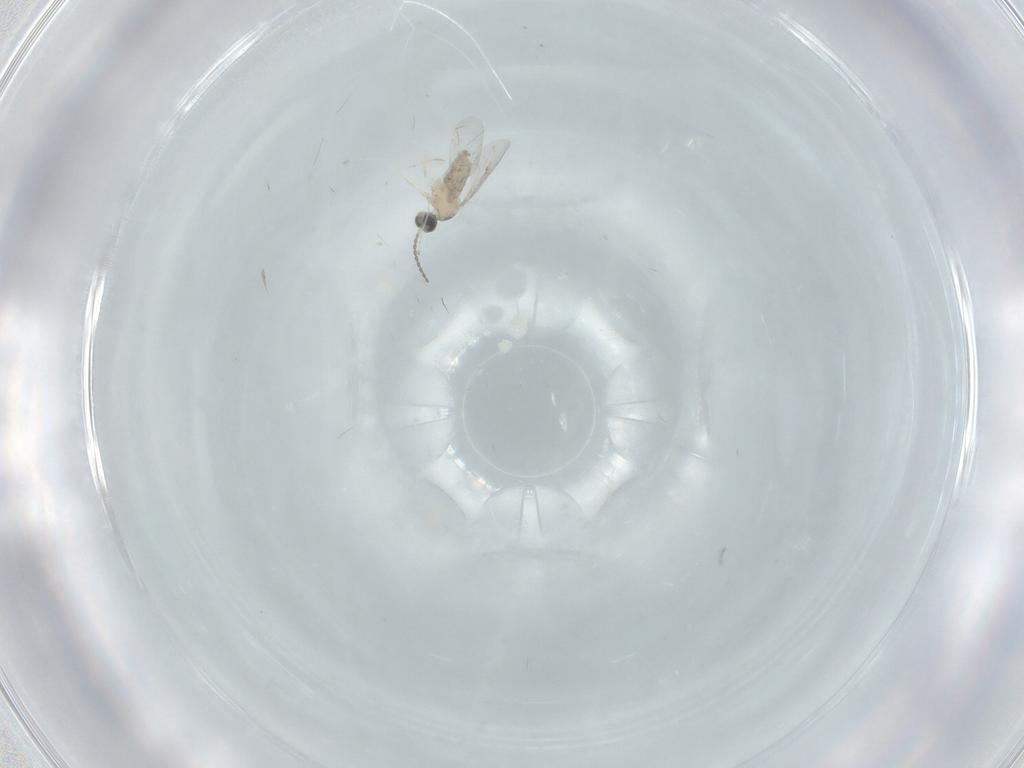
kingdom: Animalia
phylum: Arthropoda
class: Insecta
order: Diptera
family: Cecidomyiidae
